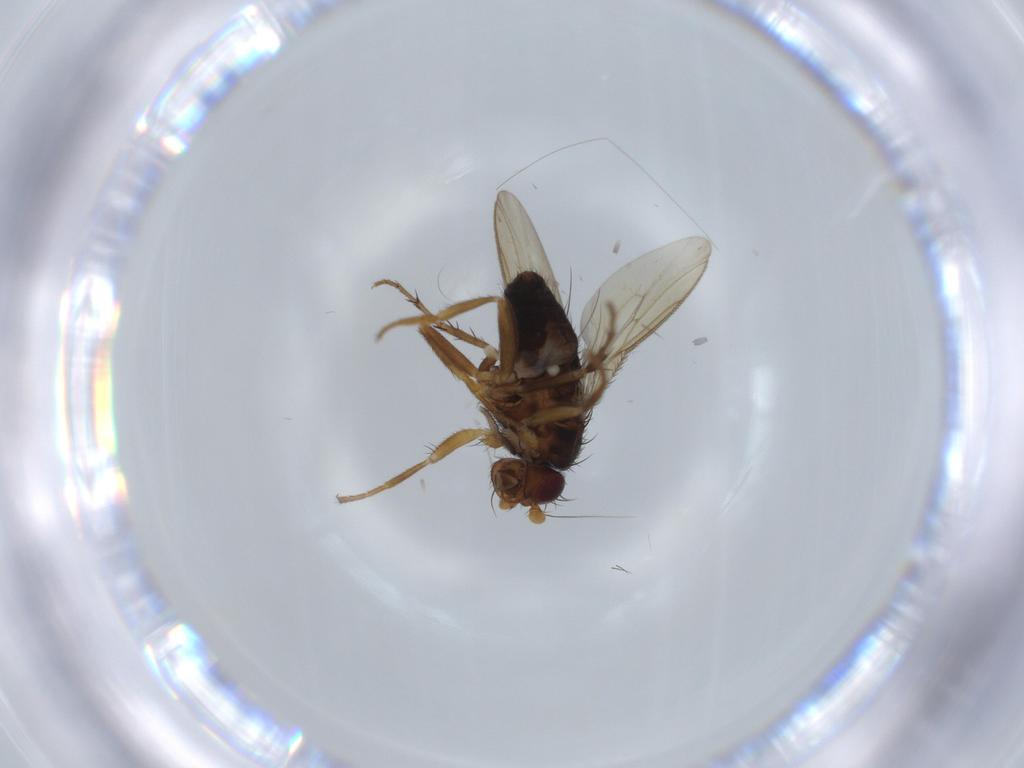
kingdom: Animalia
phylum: Arthropoda
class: Insecta
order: Diptera
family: Sphaeroceridae
